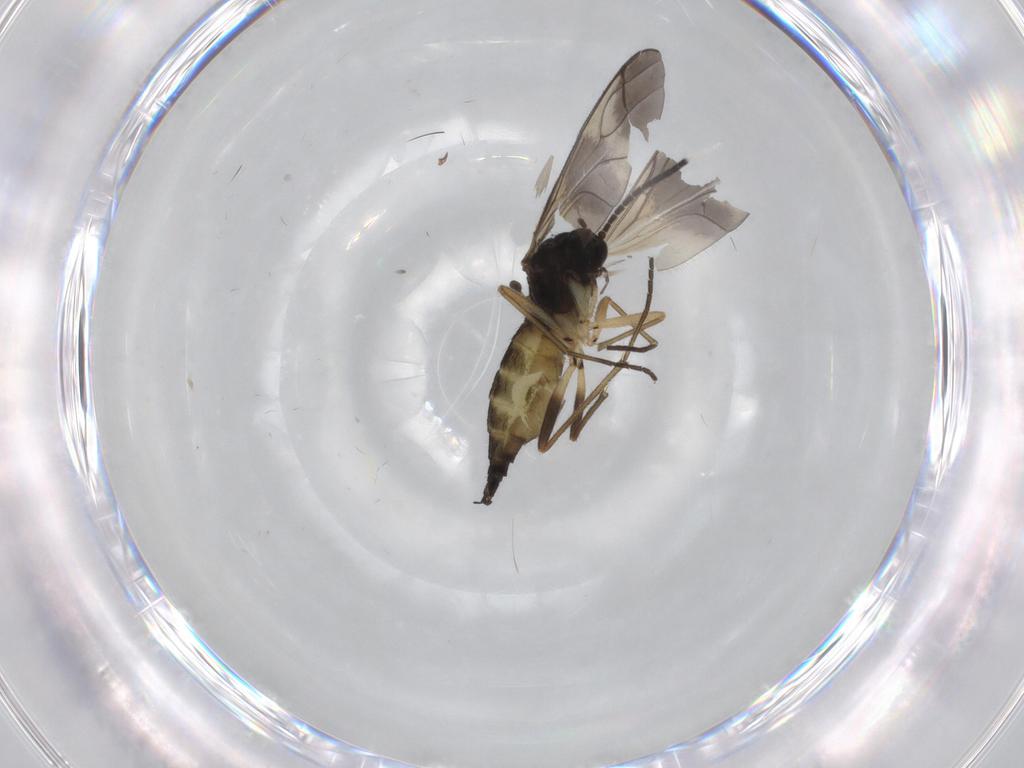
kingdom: Animalia
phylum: Arthropoda
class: Insecta
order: Diptera
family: Sciaridae
